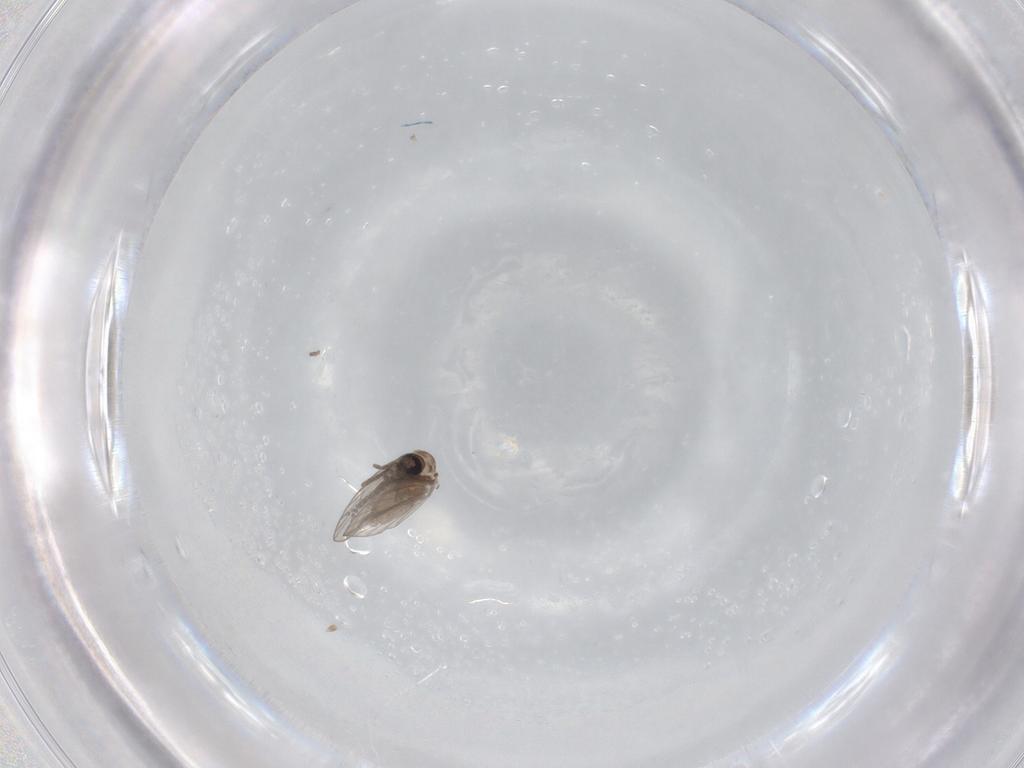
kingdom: Animalia
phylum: Arthropoda
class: Insecta
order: Diptera
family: Psychodidae
